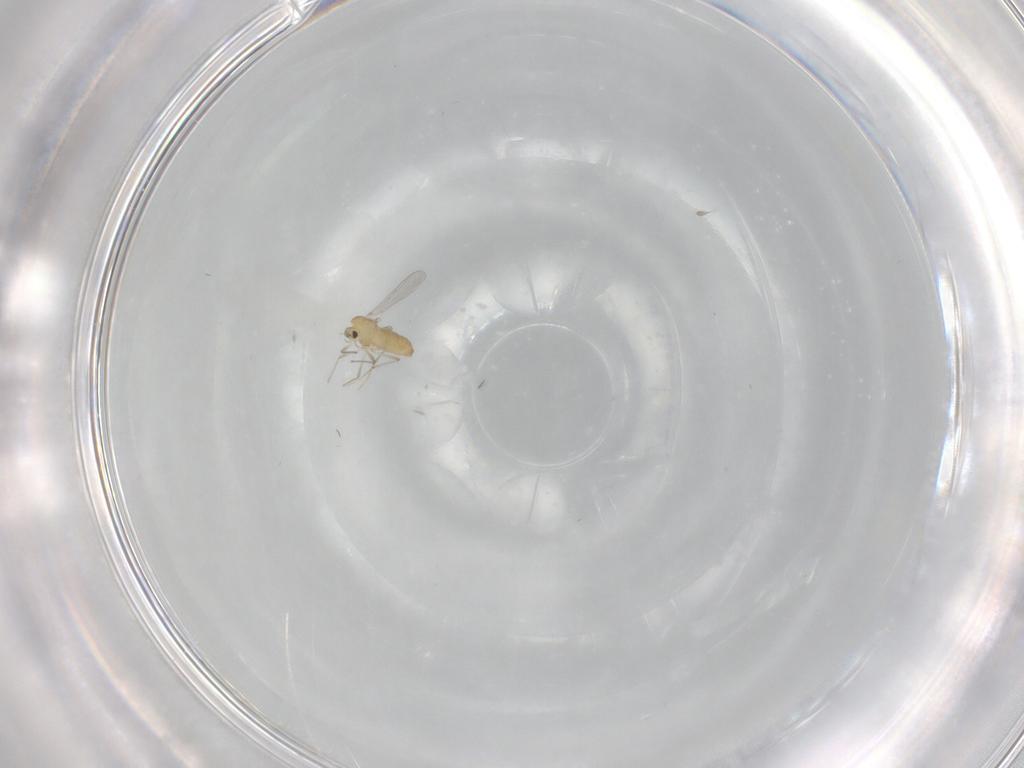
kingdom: Animalia
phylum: Arthropoda
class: Insecta
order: Diptera
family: Chironomidae
